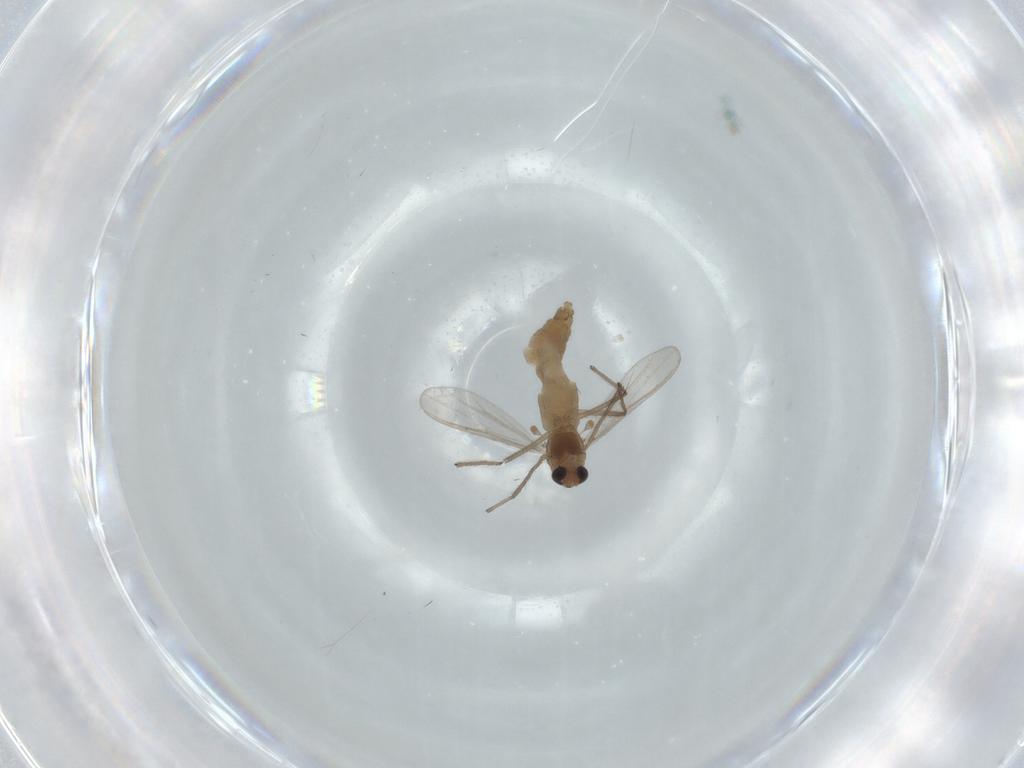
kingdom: Animalia
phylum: Arthropoda
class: Insecta
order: Diptera
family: Chironomidae
